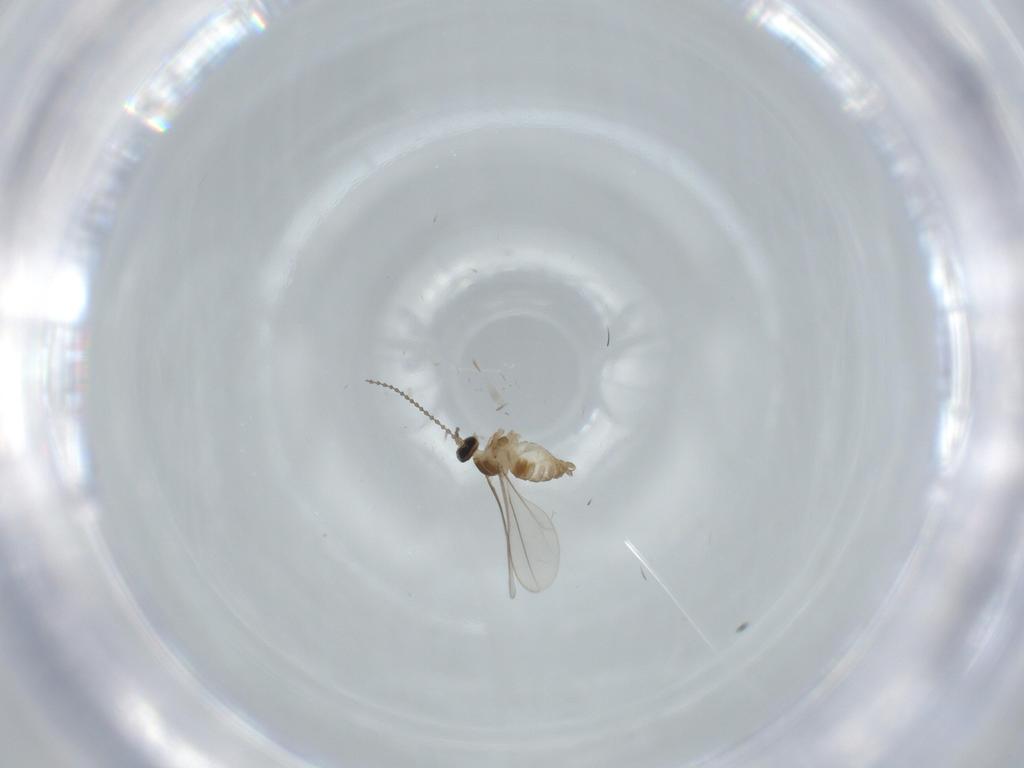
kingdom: Animalia
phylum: Arthropoda
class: Insecta
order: Diptera
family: Cecidomyiidae
